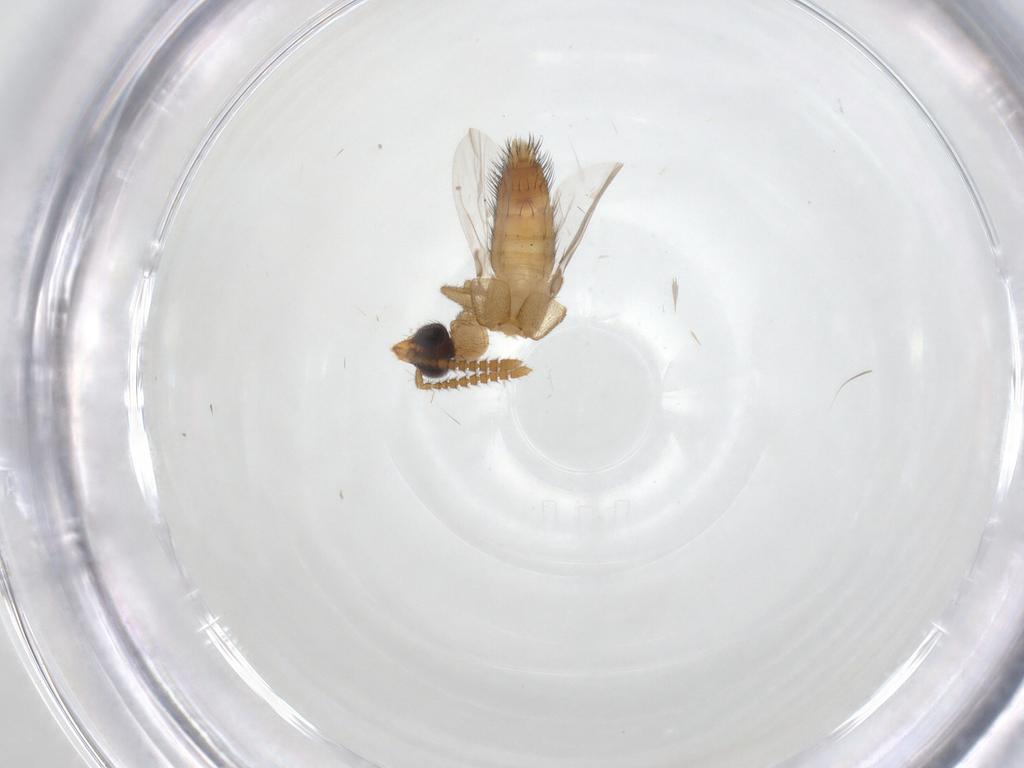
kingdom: Animalia
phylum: Arthropoda
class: Insecta
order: Coleoptera
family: Staphylinidae
